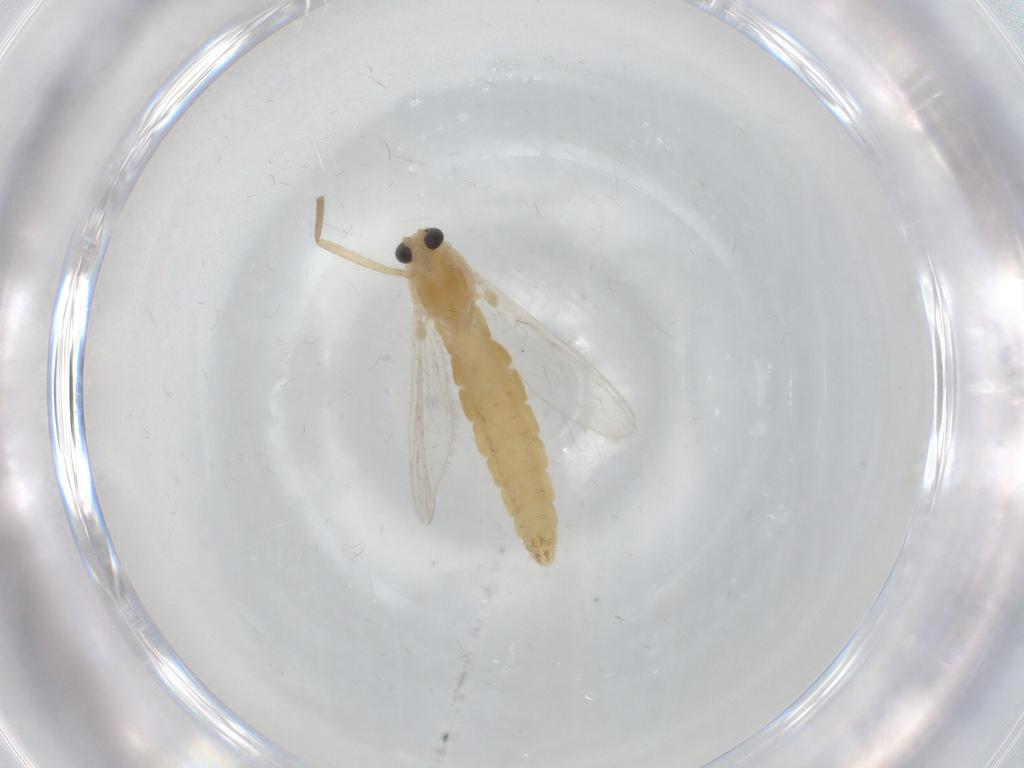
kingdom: Animalia
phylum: Arthropoda
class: Insecta
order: Diptera
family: Chironomidae
